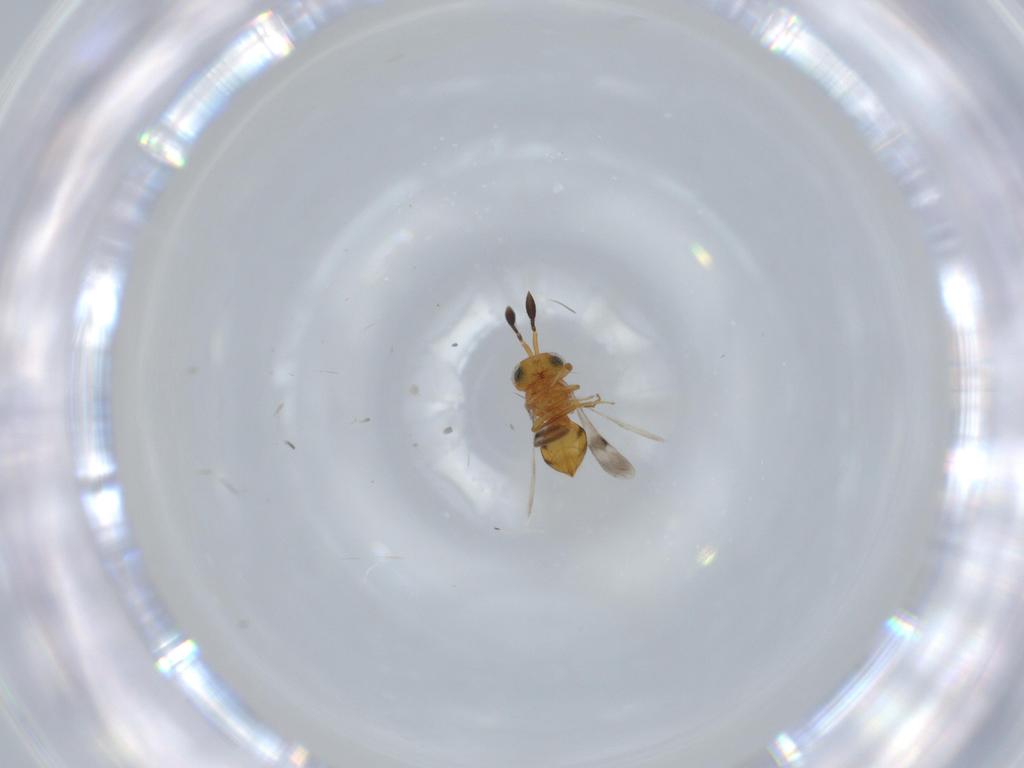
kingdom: Animalia
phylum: Arthropoda
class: Insecta
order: Hymenoptera
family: Scelionidae
